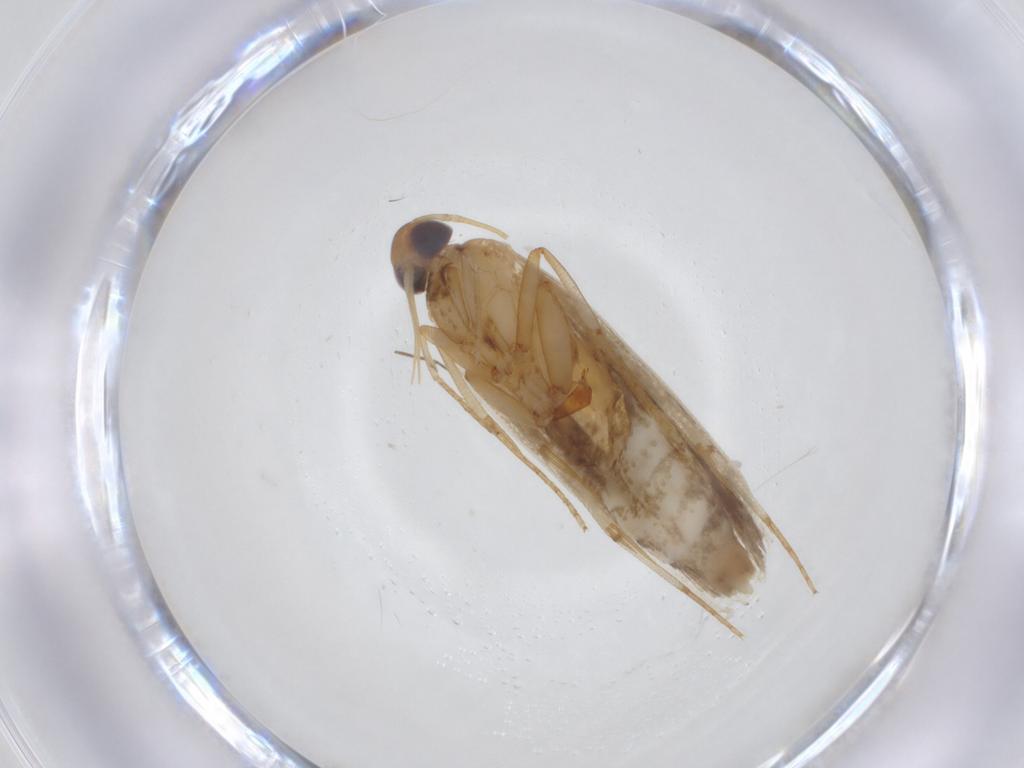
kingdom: Animalia
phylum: Arthropoda
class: Insecta
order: Lepidoptera
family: Gelechiidae
